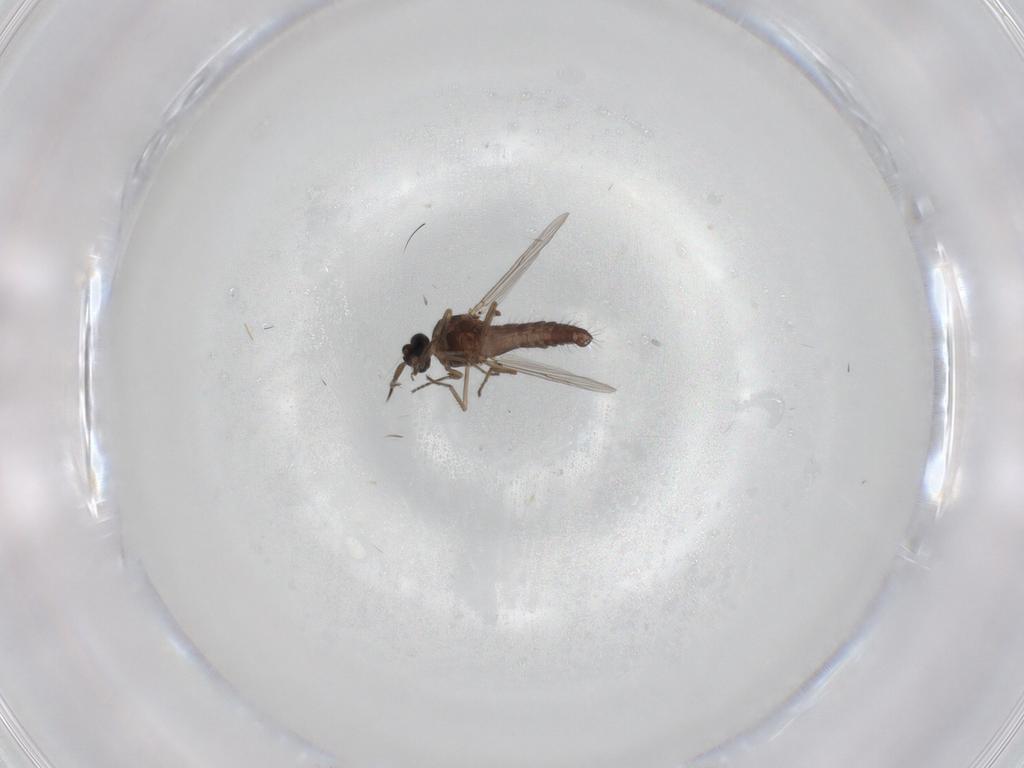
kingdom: Animalia
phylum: Arthropoda
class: Insecta
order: Diptera
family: Ceratopogonidae
